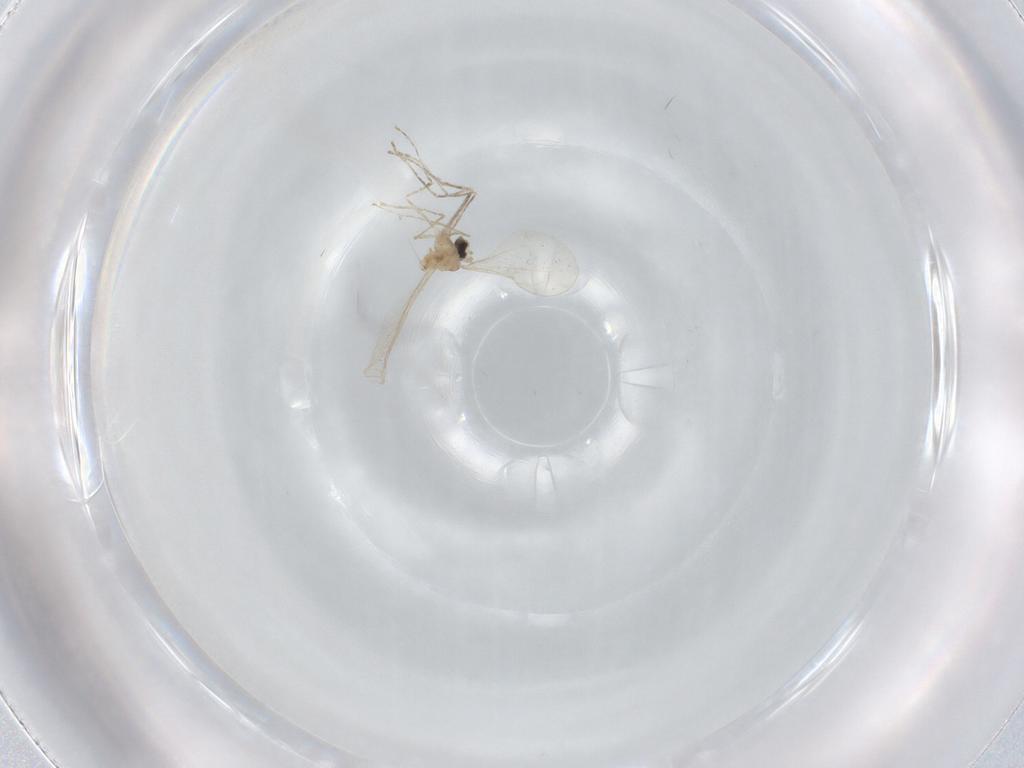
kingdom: Animalia
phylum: Arthropoda
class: Insecta
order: Diptera
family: Cecidomyiidae
